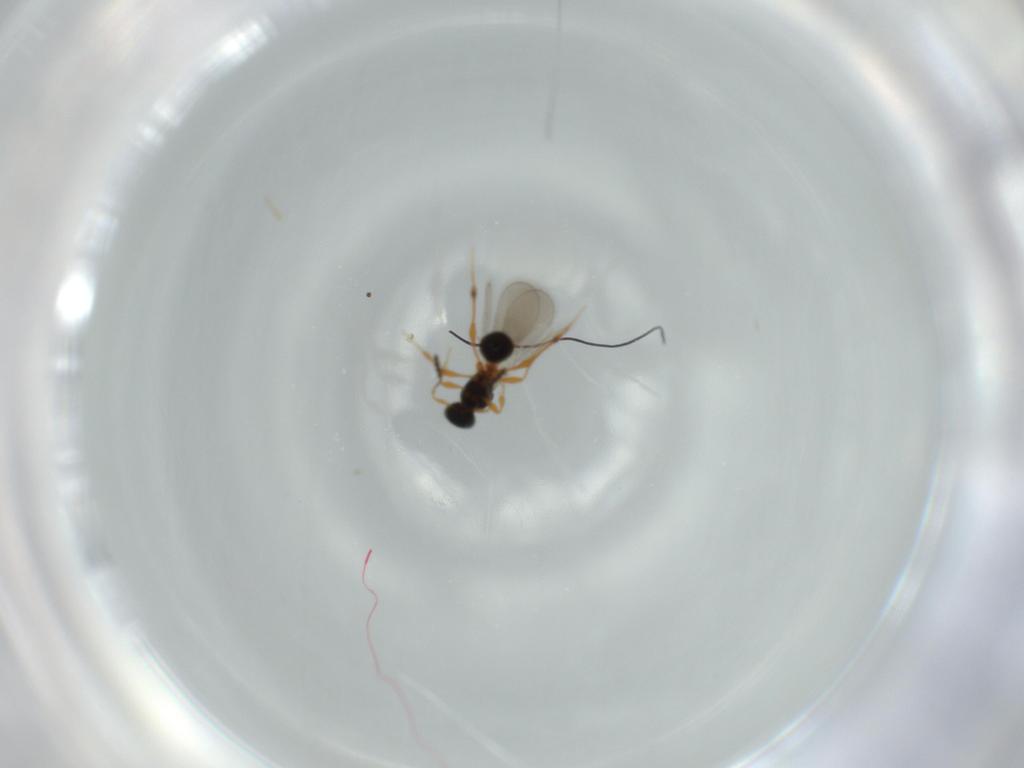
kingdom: Animalia
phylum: Arthropoda
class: Insecta
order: Hymenoptera
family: Platygastridae
